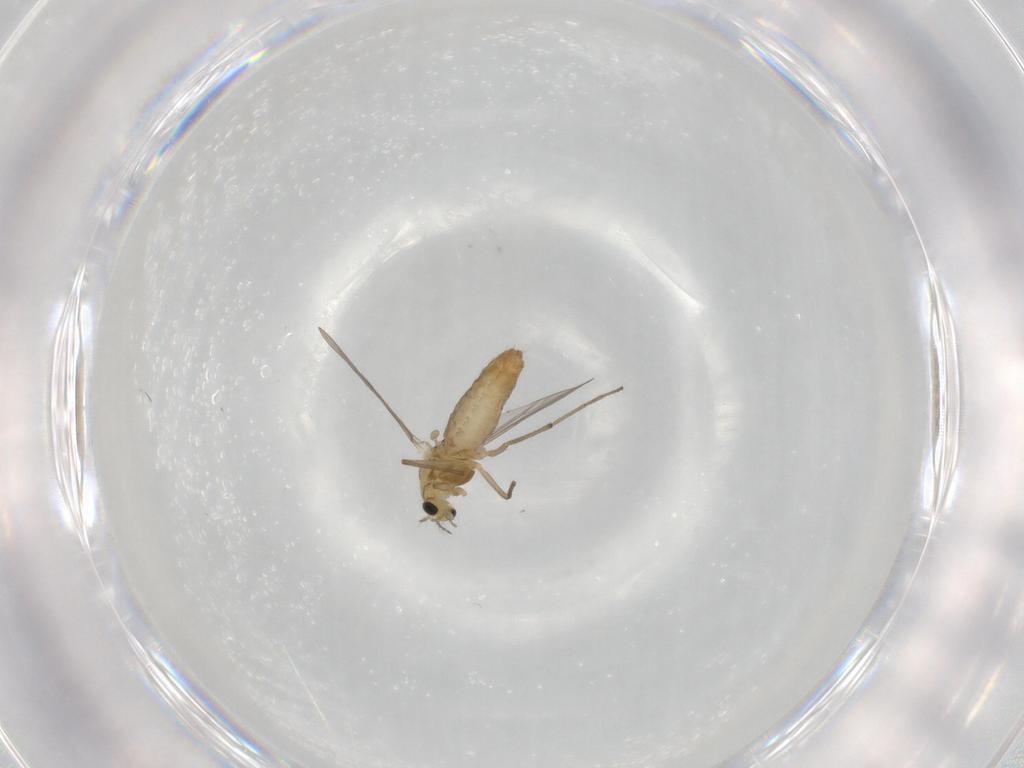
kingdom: Animalia
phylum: Arthropoda
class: Insecta
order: Diptera
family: Chironomidae
